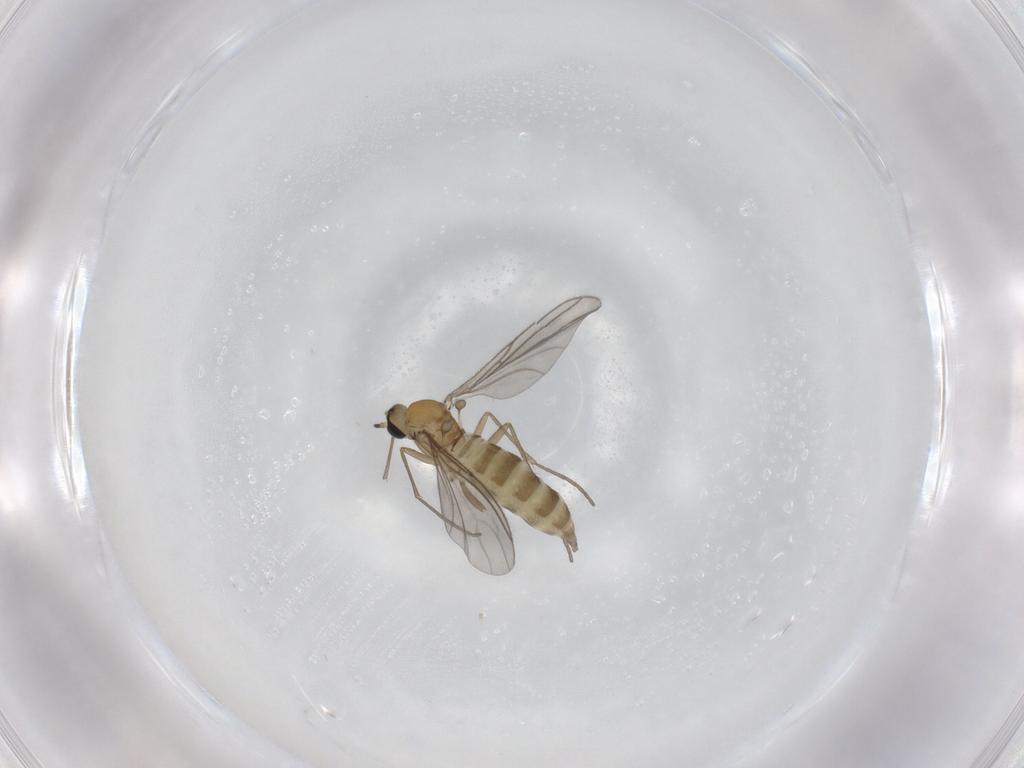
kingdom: Animalia
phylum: Arthropoda
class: Insecta
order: Diptera
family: Sciaridae
